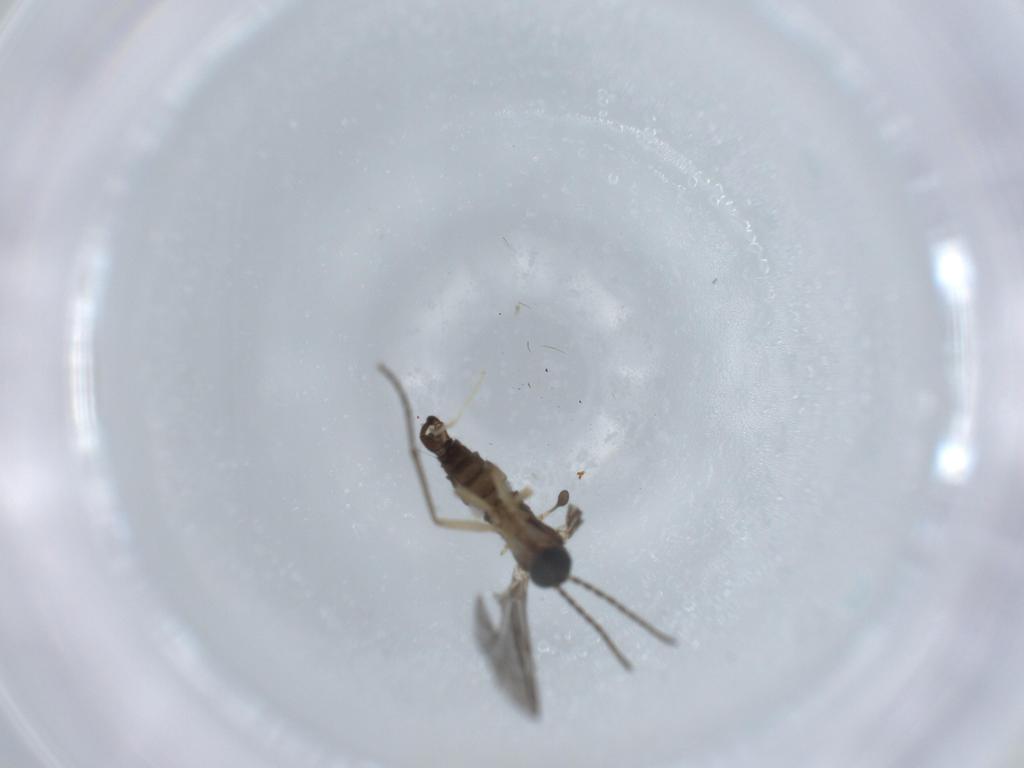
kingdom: Animalia
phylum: Arthropoda
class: Insecta
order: Diptera
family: Sciaridae
